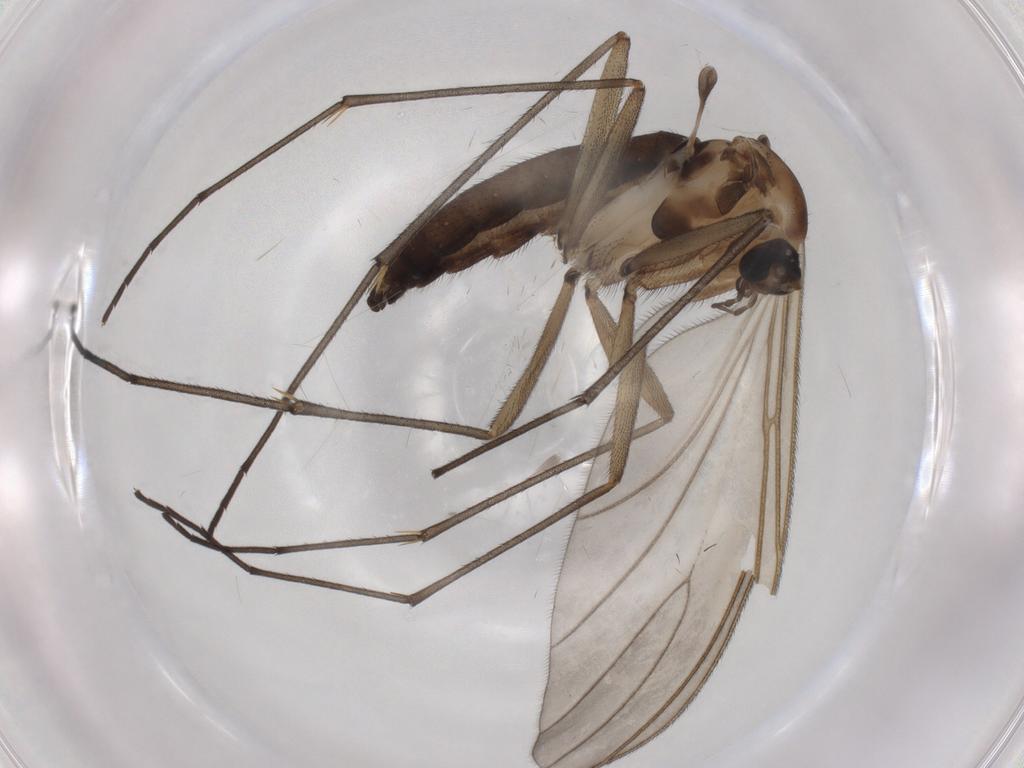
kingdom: Animalia
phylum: Arthropoda
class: Insecta
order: Diptera
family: Sciaridae
